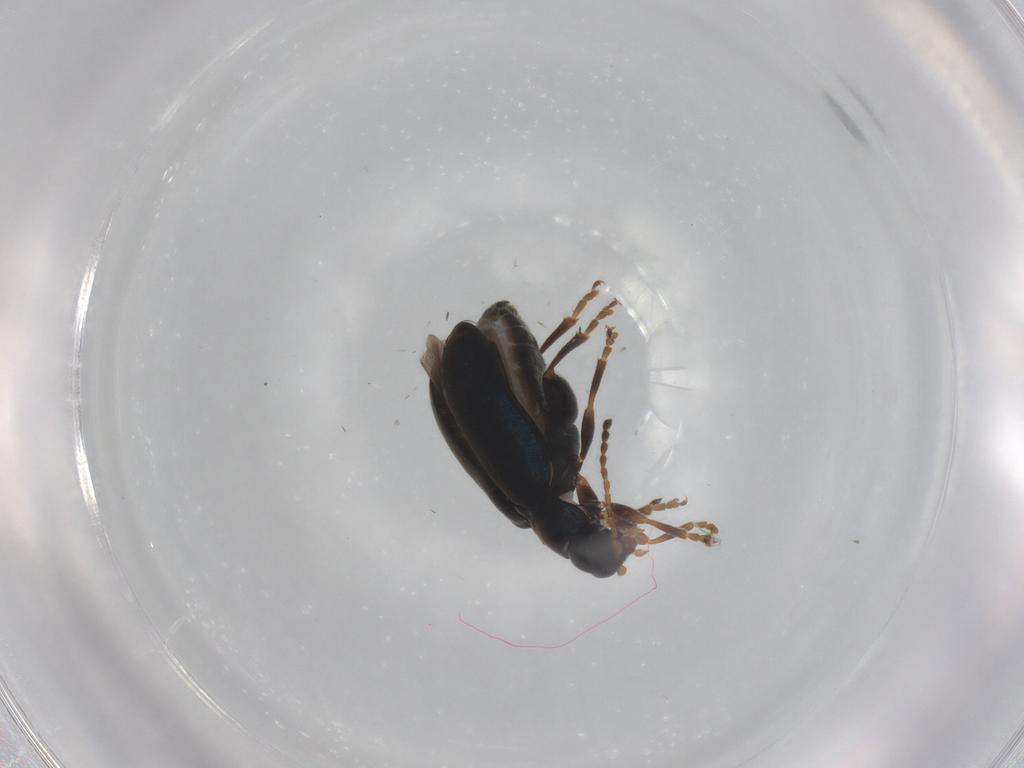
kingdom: Animalia
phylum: Arthropoda
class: Insecta
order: Coleoptera
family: Chrysomelidae
